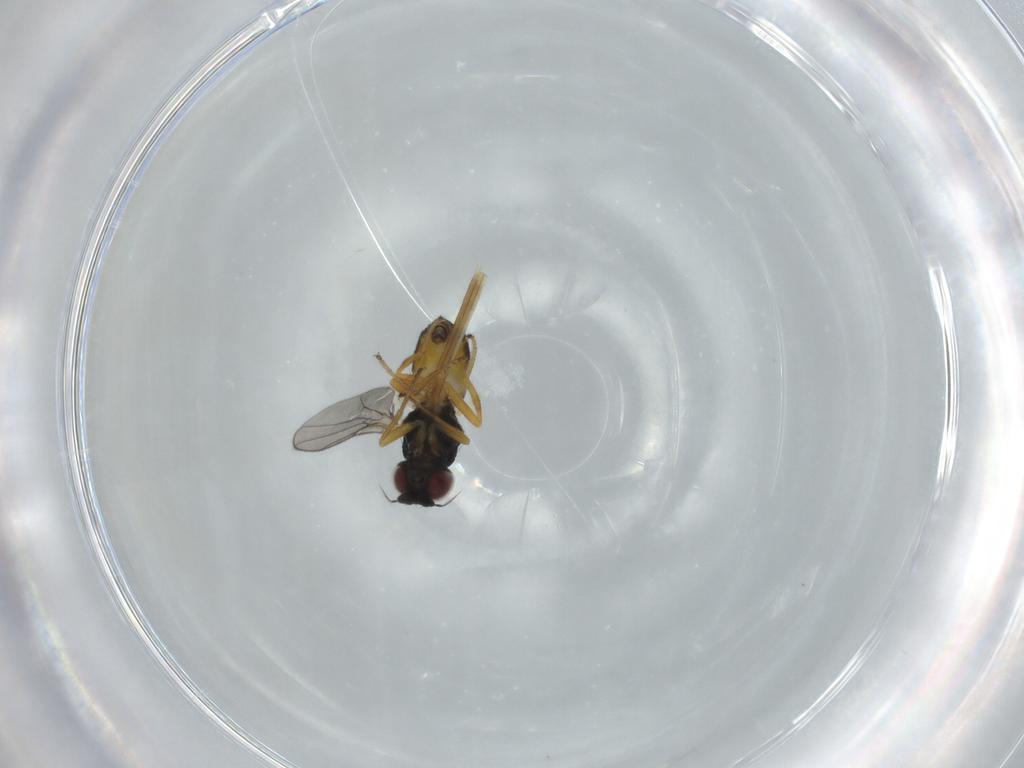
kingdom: Animalia
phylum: Arthropoda
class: Insecta
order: Diptera
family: Chloropidae
